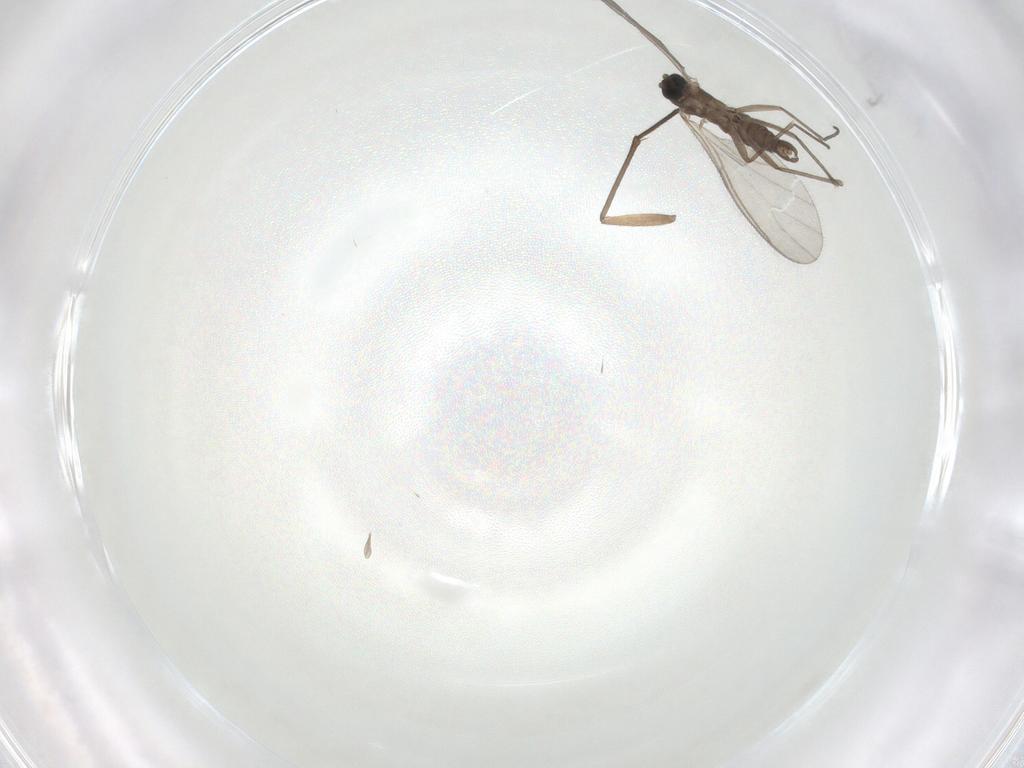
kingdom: Animalia
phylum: Arthropoda
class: Insecta
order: Diptera
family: Sciaridae
